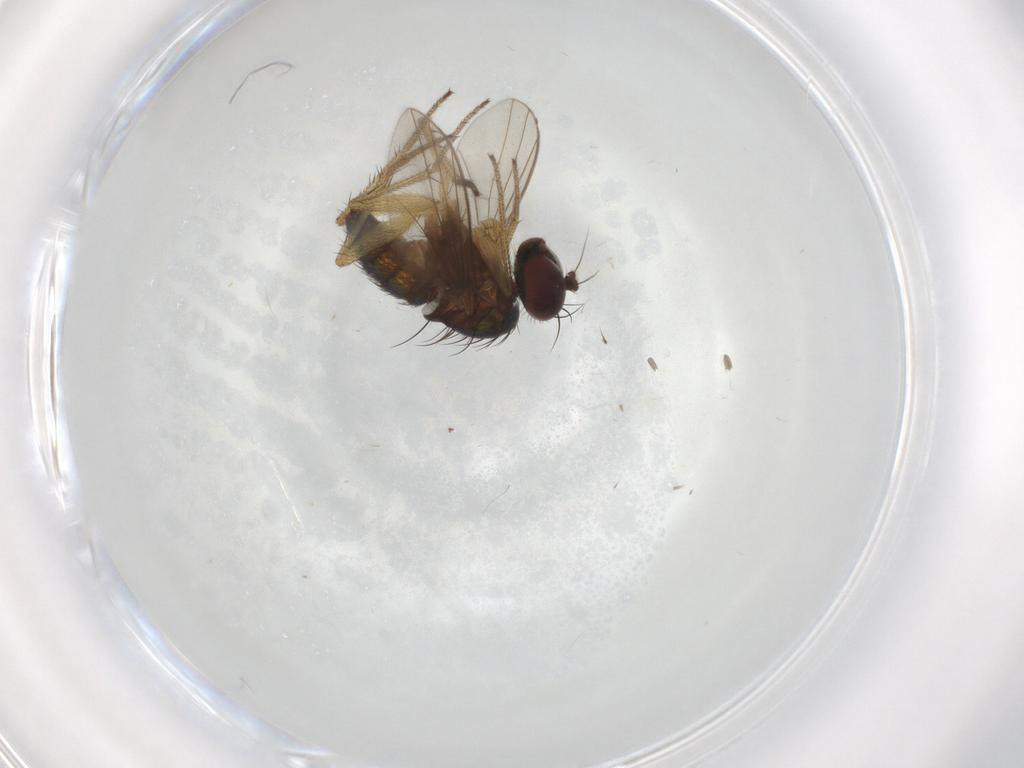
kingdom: Animalia
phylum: Arthropoda
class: Insecta
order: Diptera
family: Dolichopodidae
